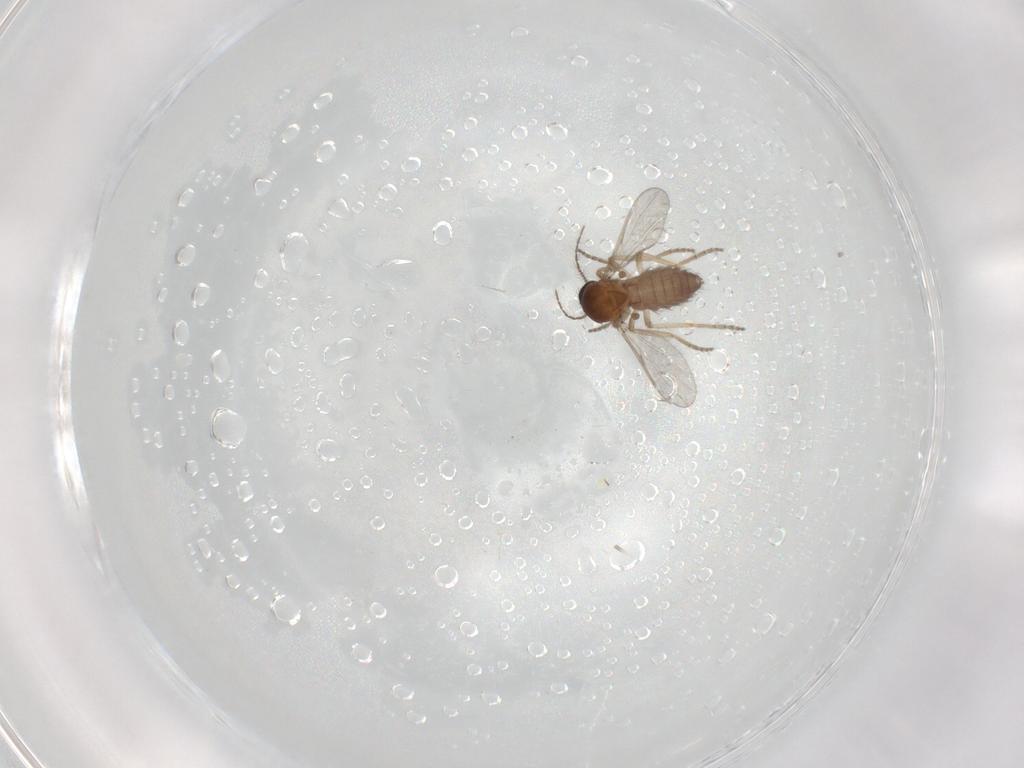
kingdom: Animalia
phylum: Arthropoda
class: Insecta
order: Diptera
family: Ceratopogonidae
